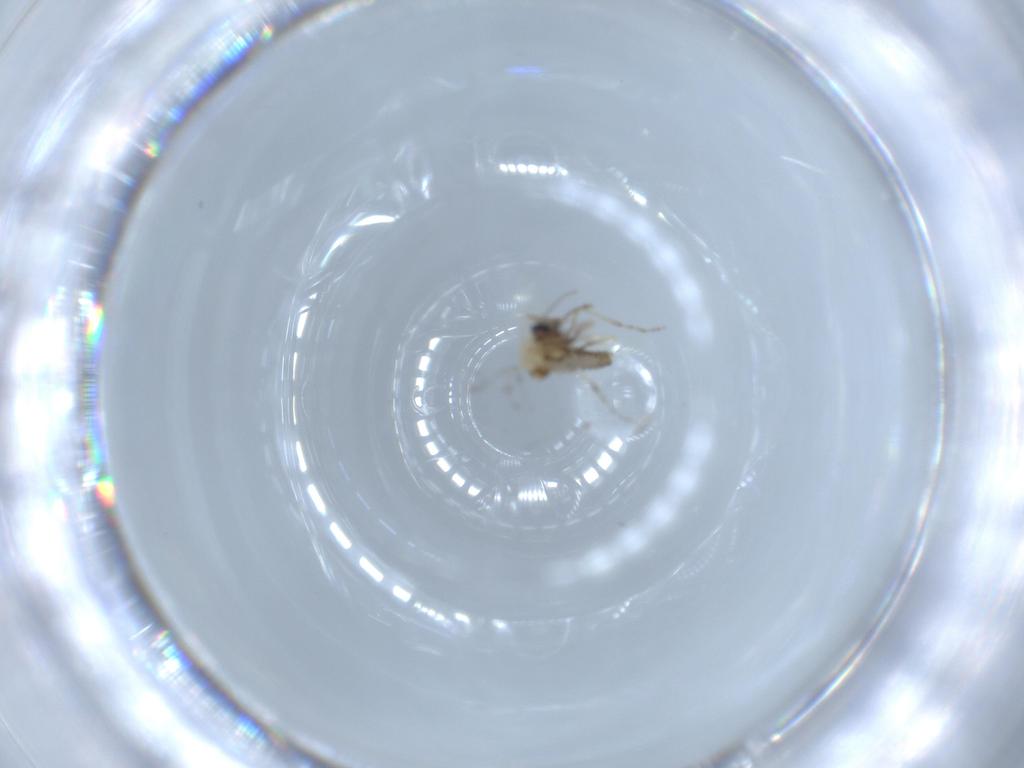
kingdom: Animalia
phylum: Arthropoda
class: Insecta
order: Diptera
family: Ceratopogonidae
